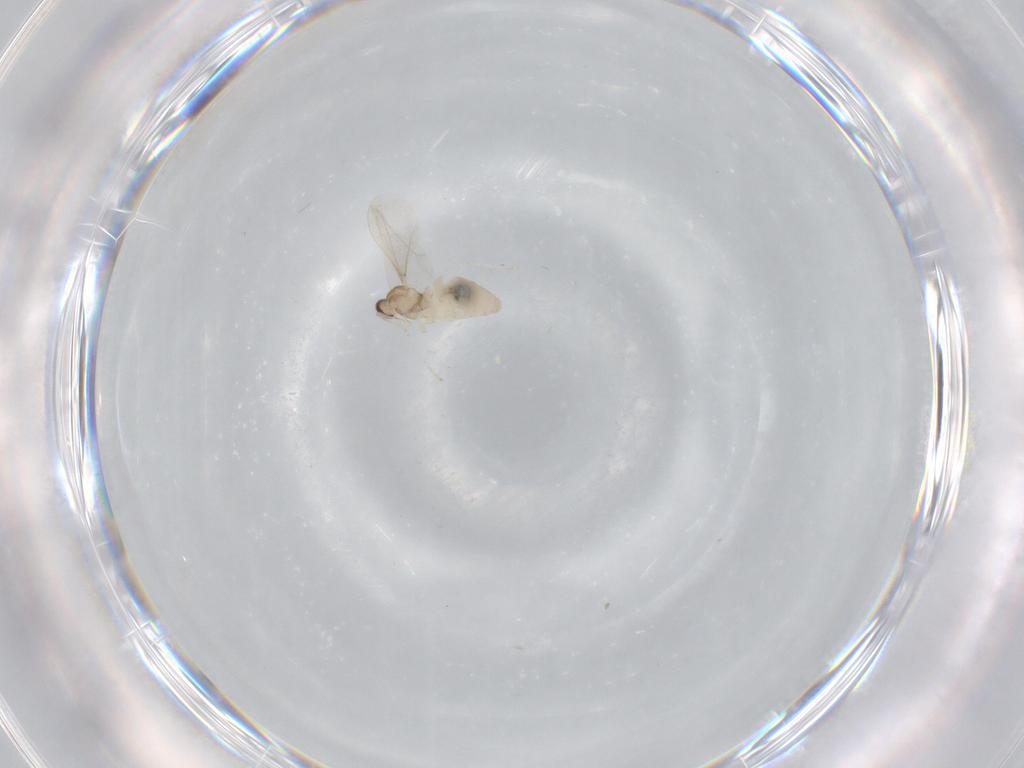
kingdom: Animalia
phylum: Arthropoda
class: Insecta
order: Diptera
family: Cecidomyiidae
